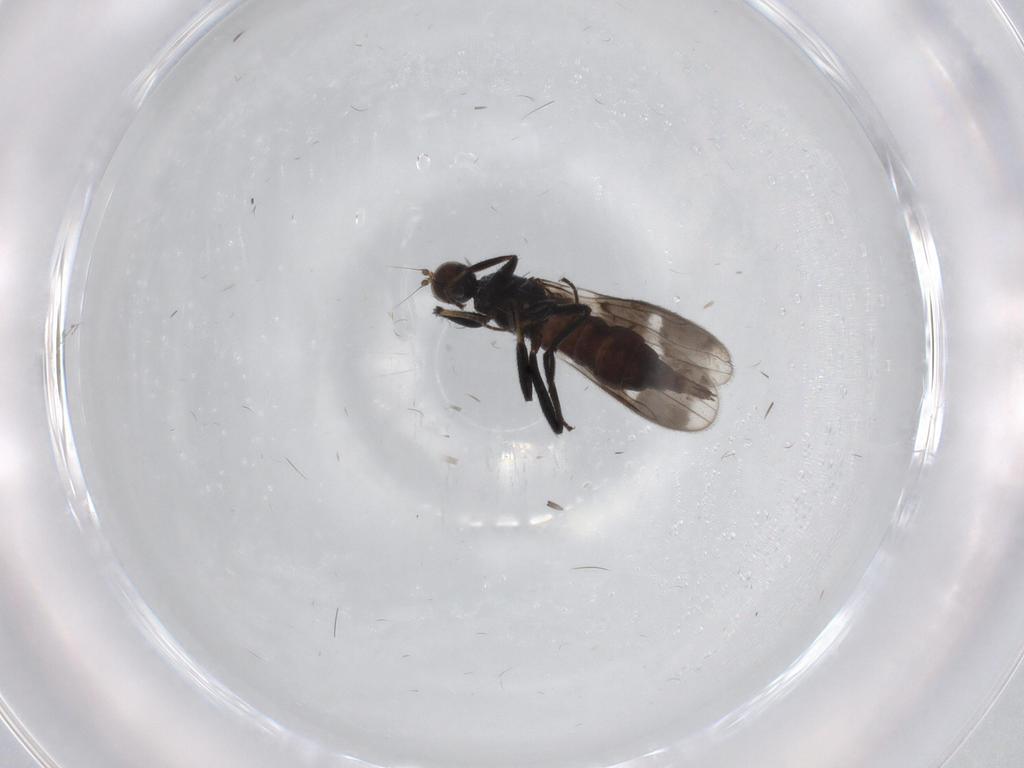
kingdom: Animalia
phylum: Arthropoda
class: Insecta
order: Diptera
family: Hybotidae
